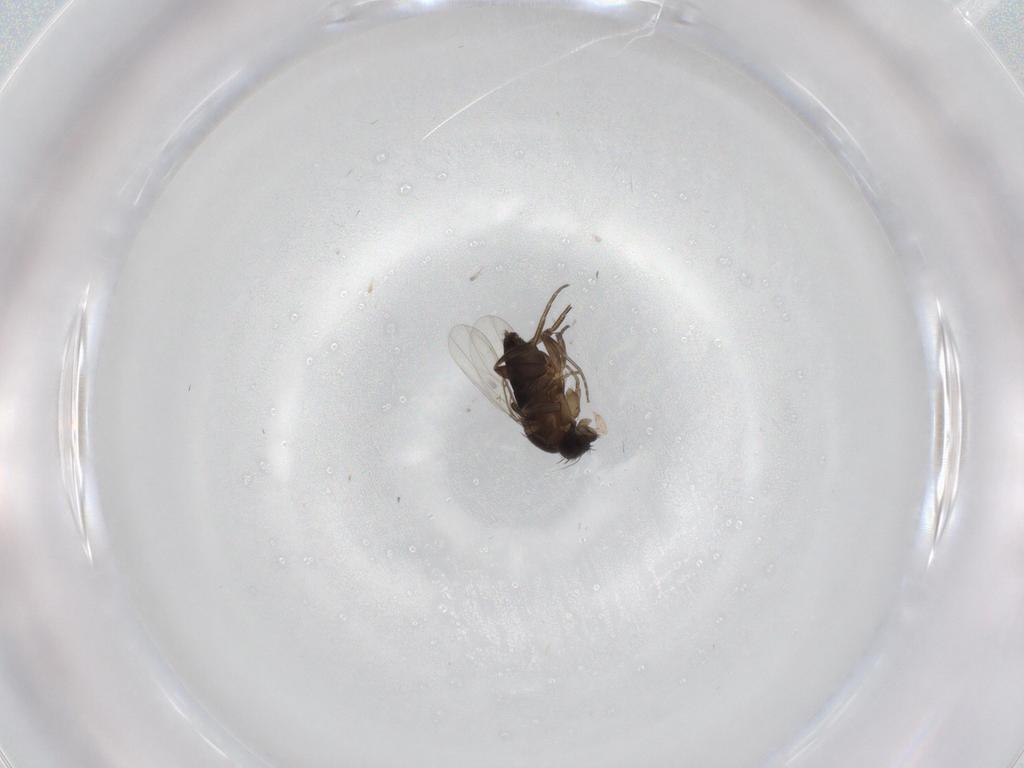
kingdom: Animalia
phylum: Arthropoda
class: Insecta
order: Diptera
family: Phoridae
